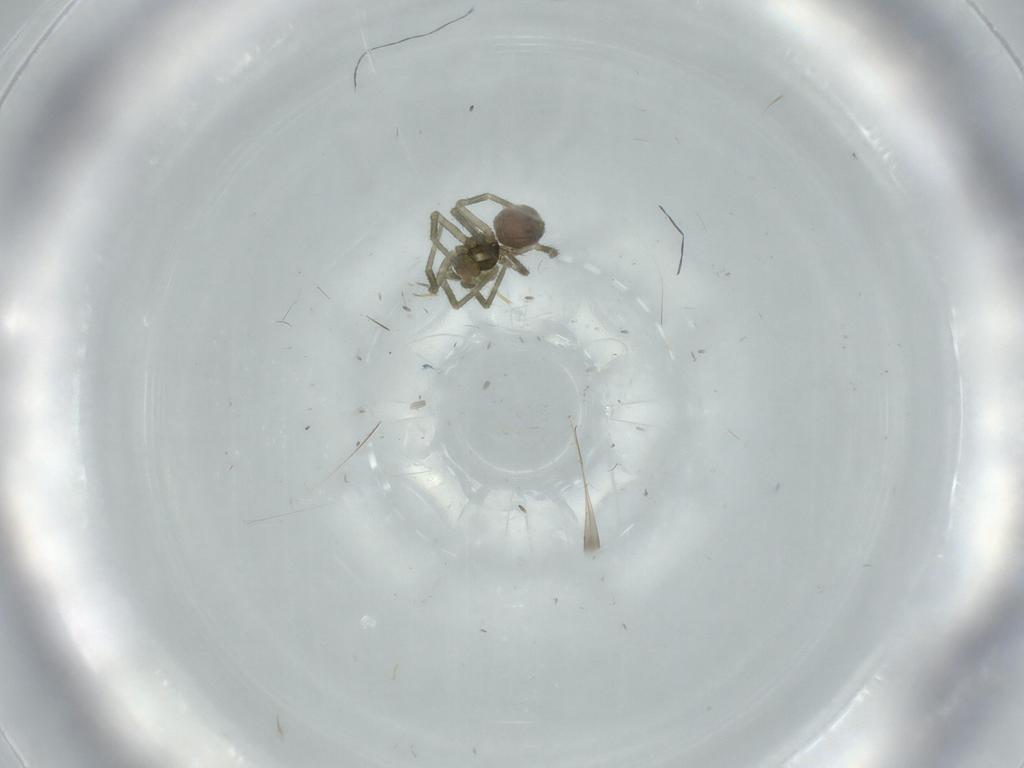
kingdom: Animalia
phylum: Arthropoda
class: Arachnida
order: Araneae
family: Linyphiidae
